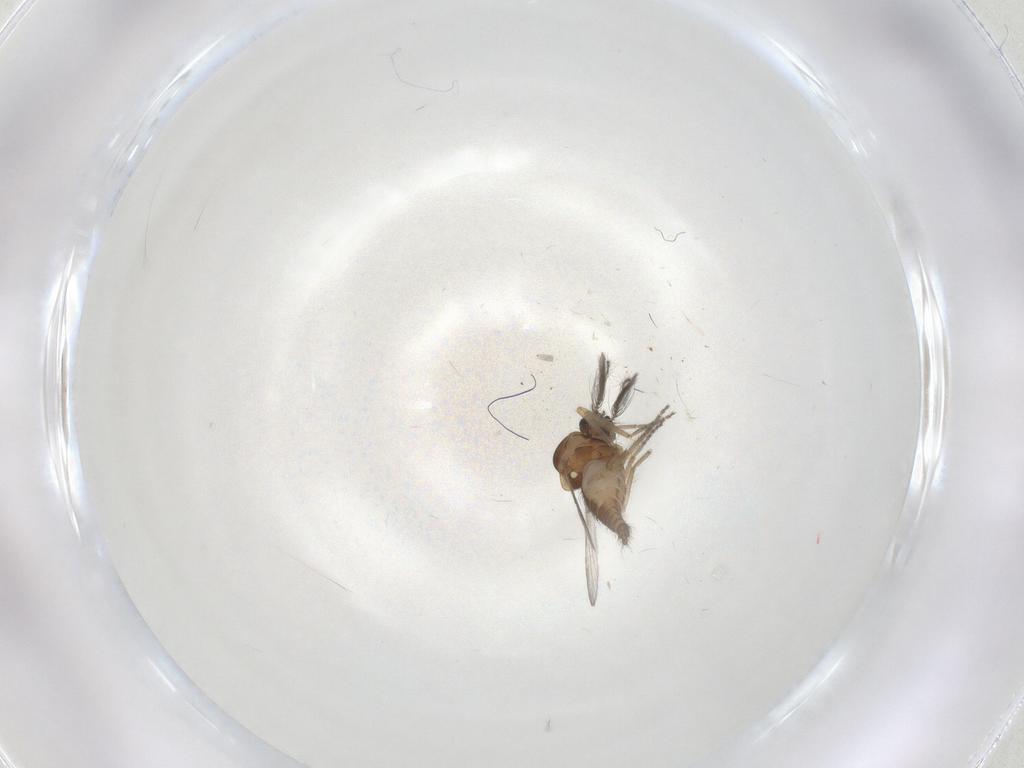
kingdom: Animalia
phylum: Arthropoda
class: Insecta
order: Diptera
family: Ceratopogonidae
